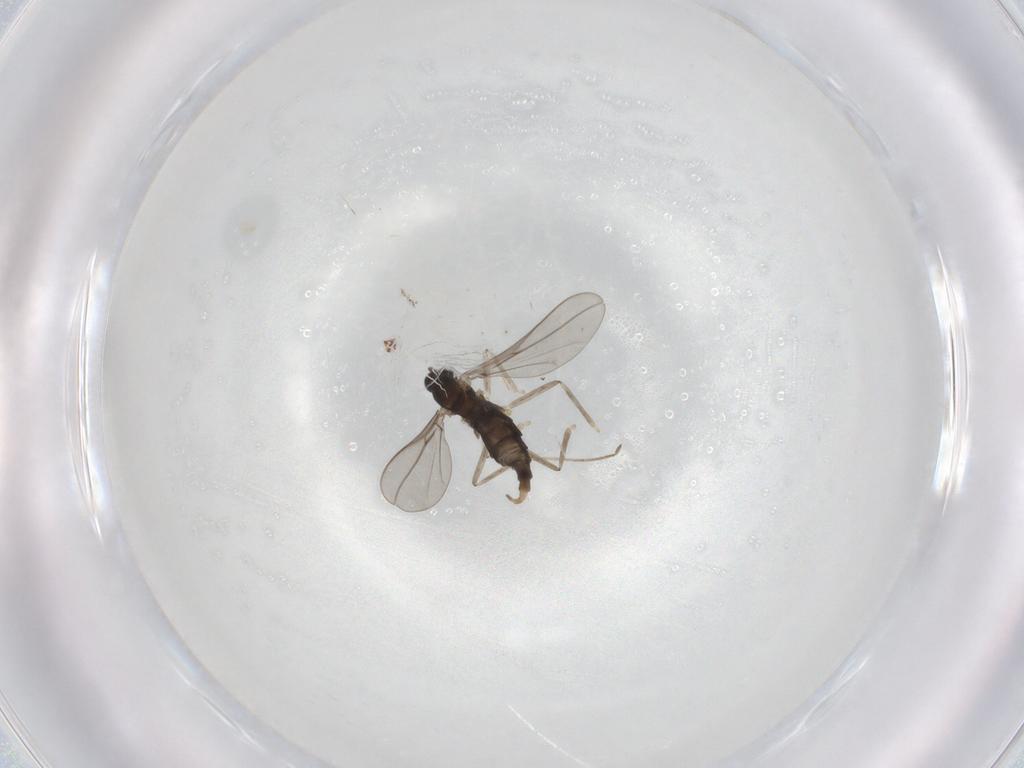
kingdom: Animalia
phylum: Arthropoda
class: Insecta
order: Diptera
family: Cecidomyiidae
